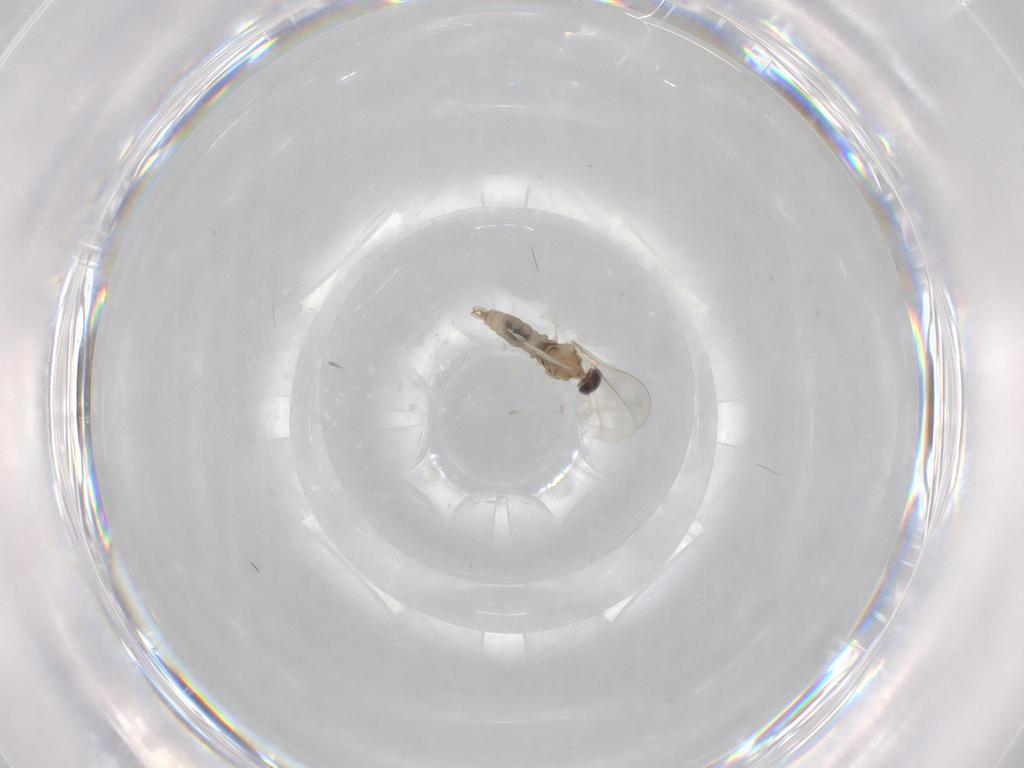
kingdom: Animalia
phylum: Arthropoda
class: Insecta
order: Diptera
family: Cecidomyiidae
